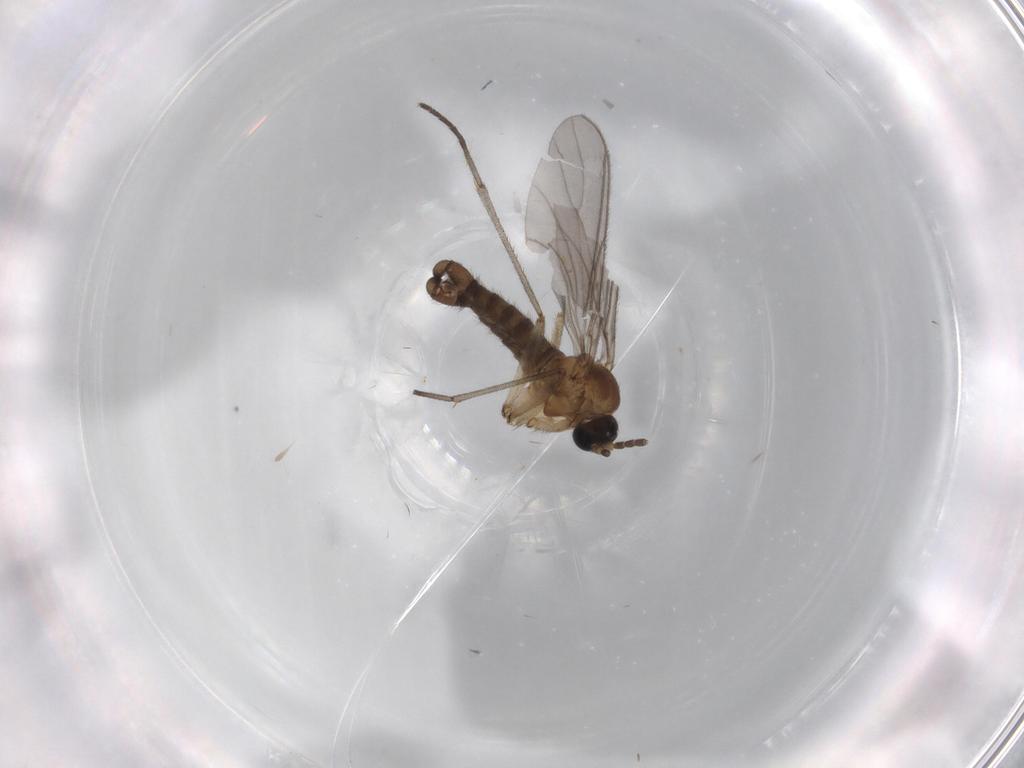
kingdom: Animalia
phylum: Arthropoda
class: Insecta
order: Diptera
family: Sciaridae
